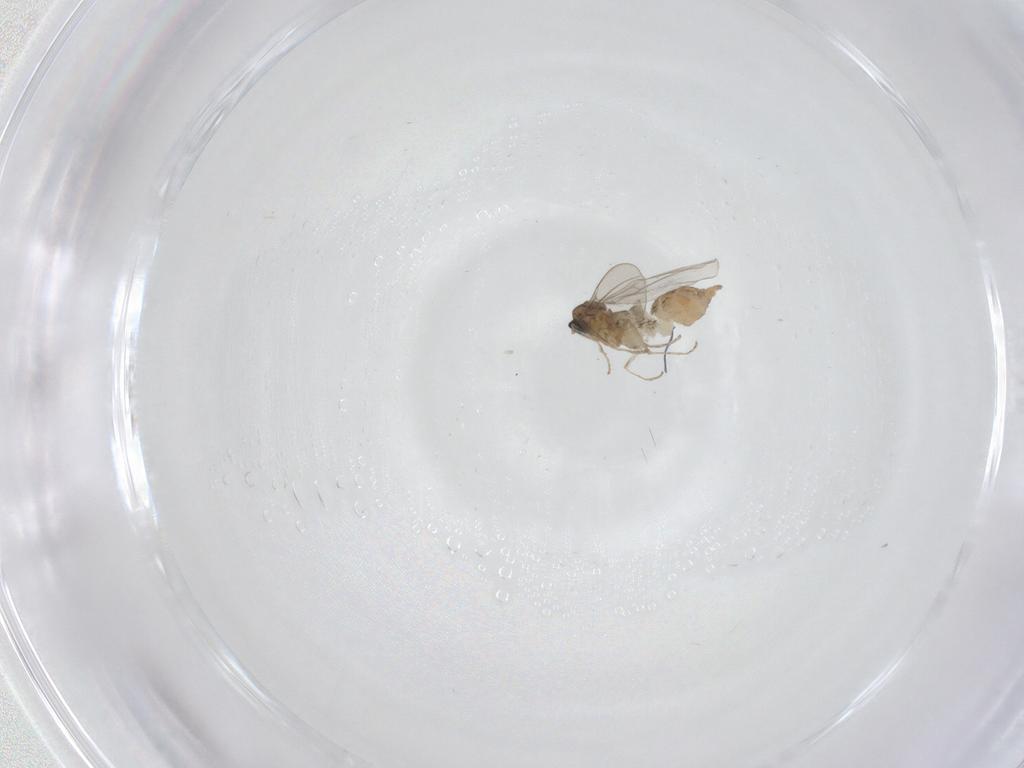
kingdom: Animalia
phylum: Arthropoda
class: Insecta
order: Diptera
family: Cecidomyiidae
